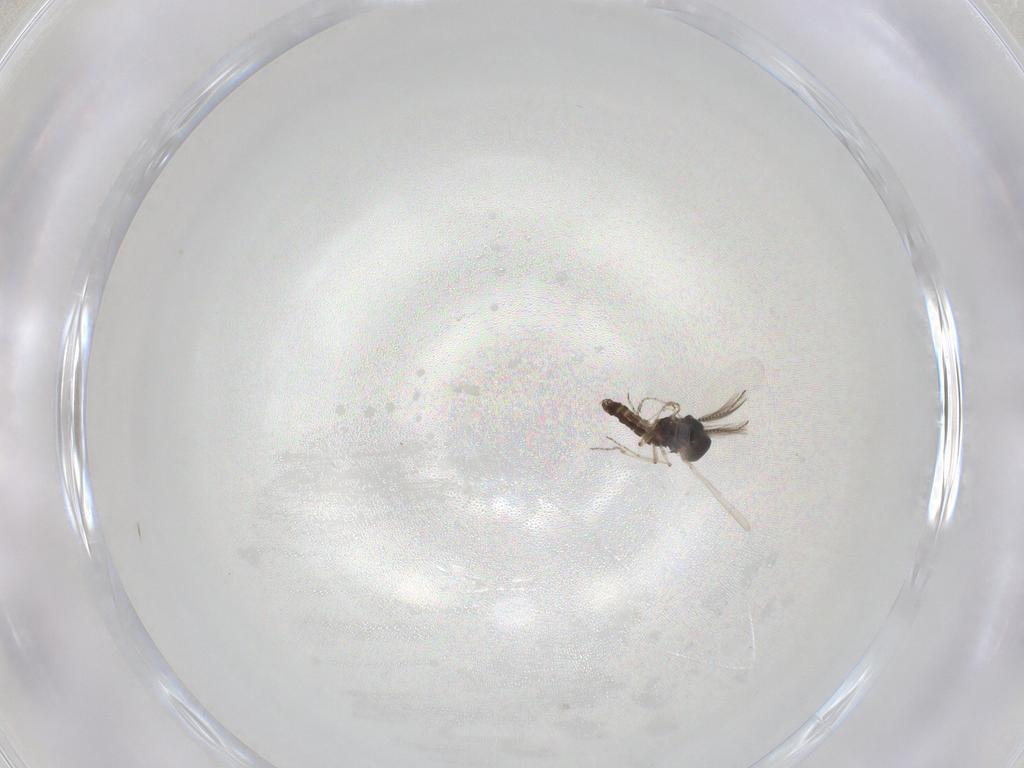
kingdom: Animalia
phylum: Arthropoda
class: Insecta
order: Diptera
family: Ceratopogonidae
